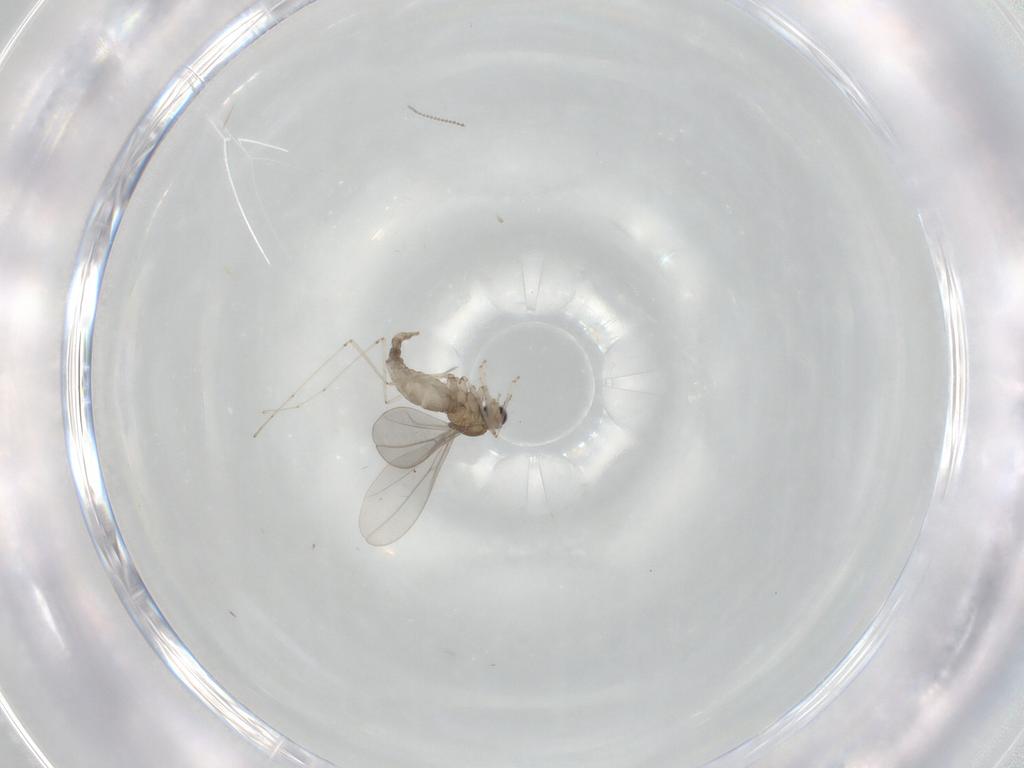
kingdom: Animalia
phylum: Arthropoda
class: Insecta
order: Diptera
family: Cecidomyiidae
